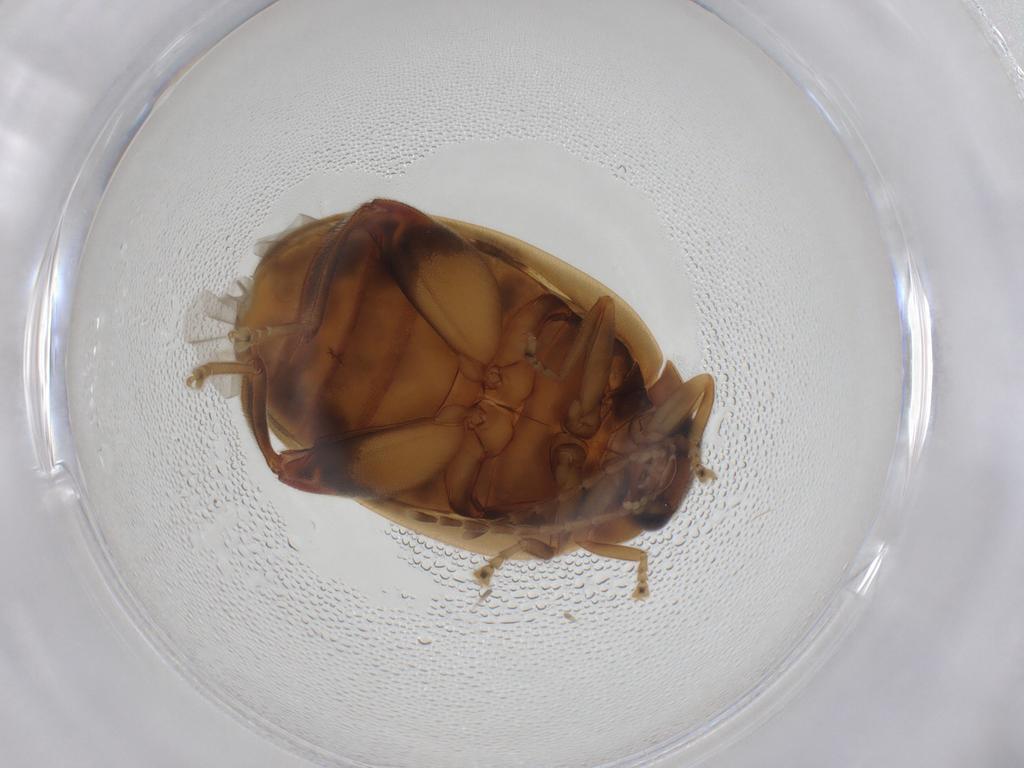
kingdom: Animalia
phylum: Arthropoda
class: Insecta
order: Coleoptera
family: Scirtidae
